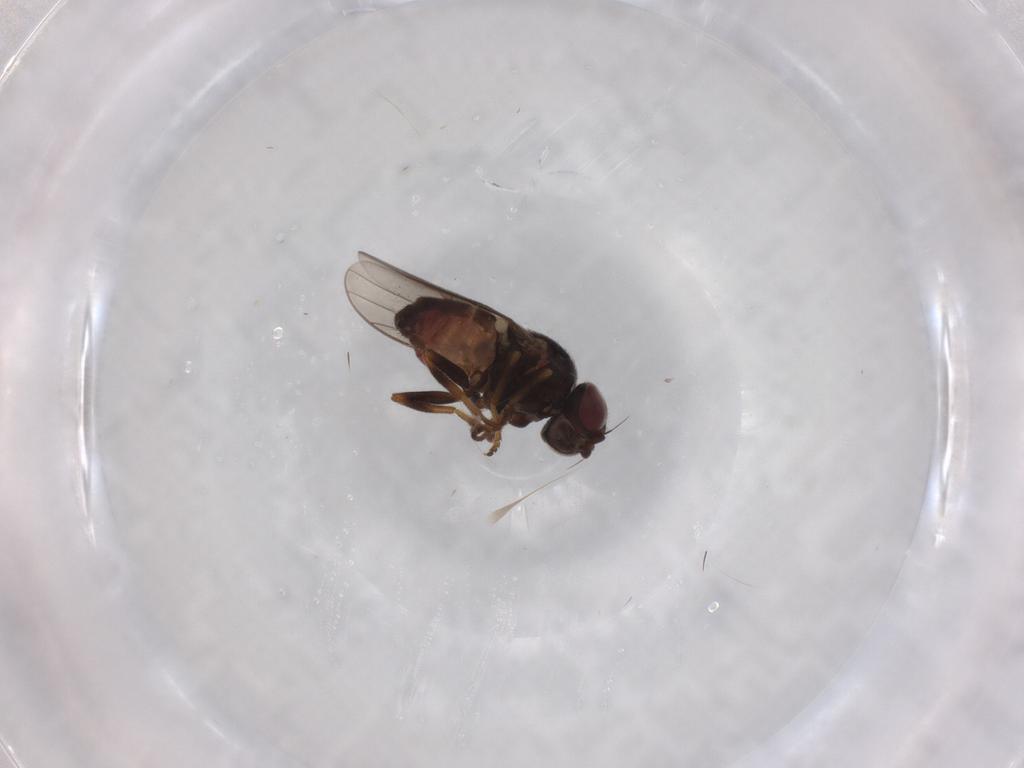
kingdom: Animalia
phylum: Arthropoda
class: Insecta
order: Diptera
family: Chloropidae
